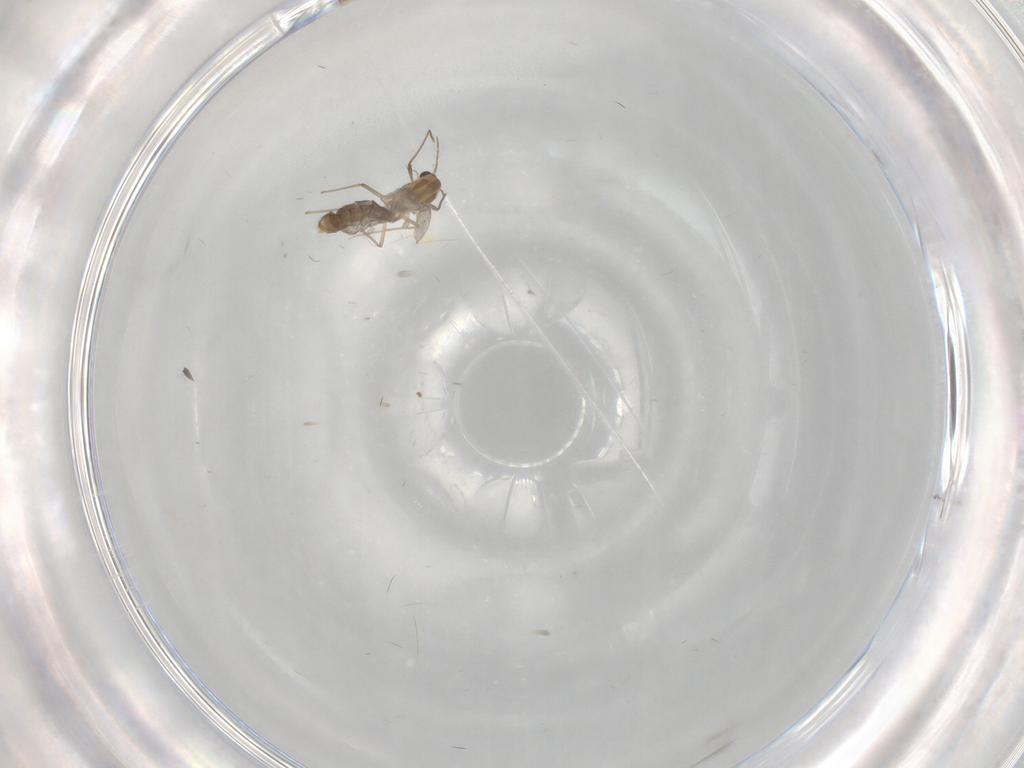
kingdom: Animalia
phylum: Arthropoda
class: Insecta
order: Diptera
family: Chironomidae
